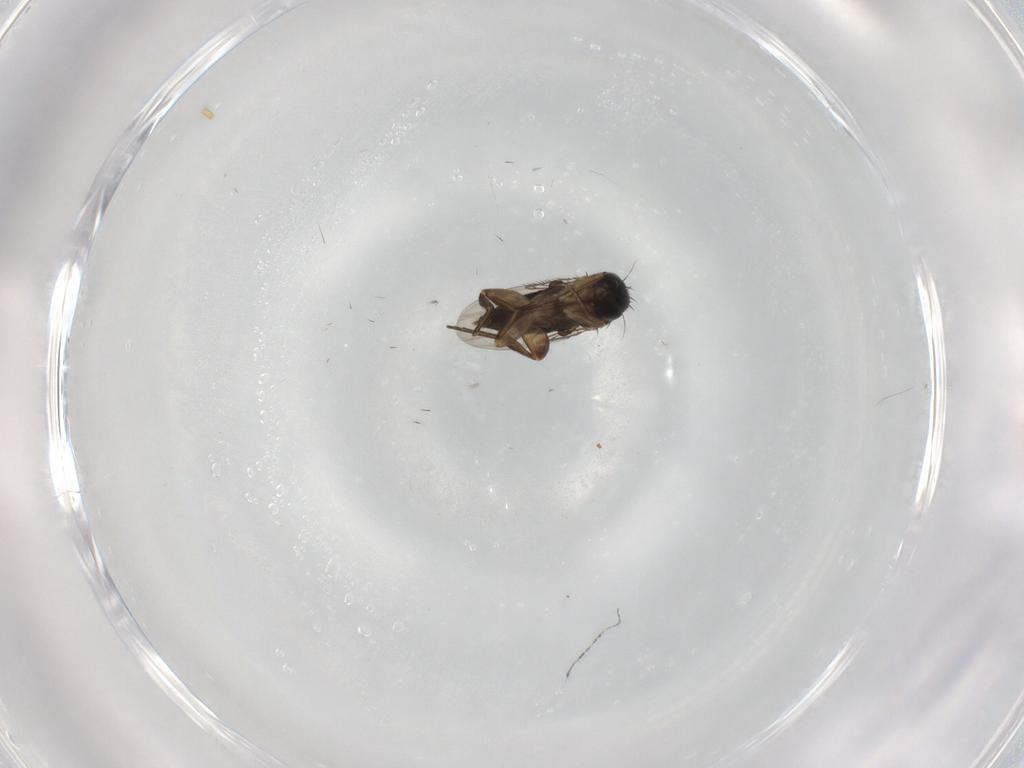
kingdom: Animalia
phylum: Arthropoda
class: Insecta
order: Diptera
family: Phoridae
